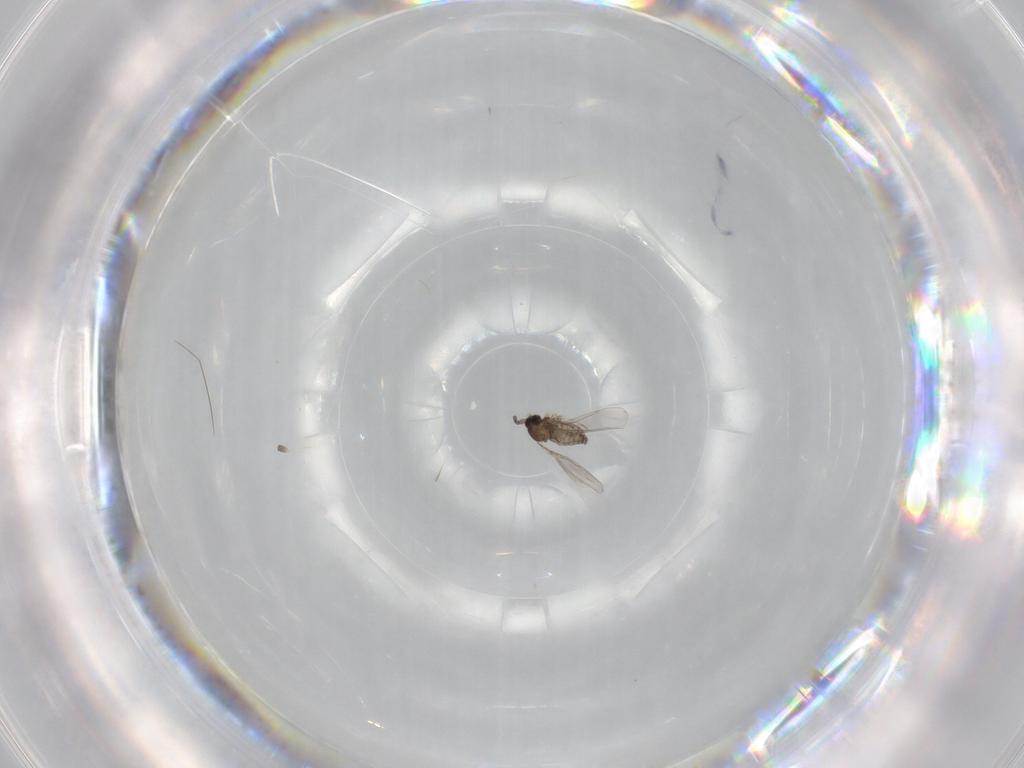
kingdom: Animalia
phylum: Arthropoda
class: Insecta
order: Diptera
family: Cecidomyiidae
